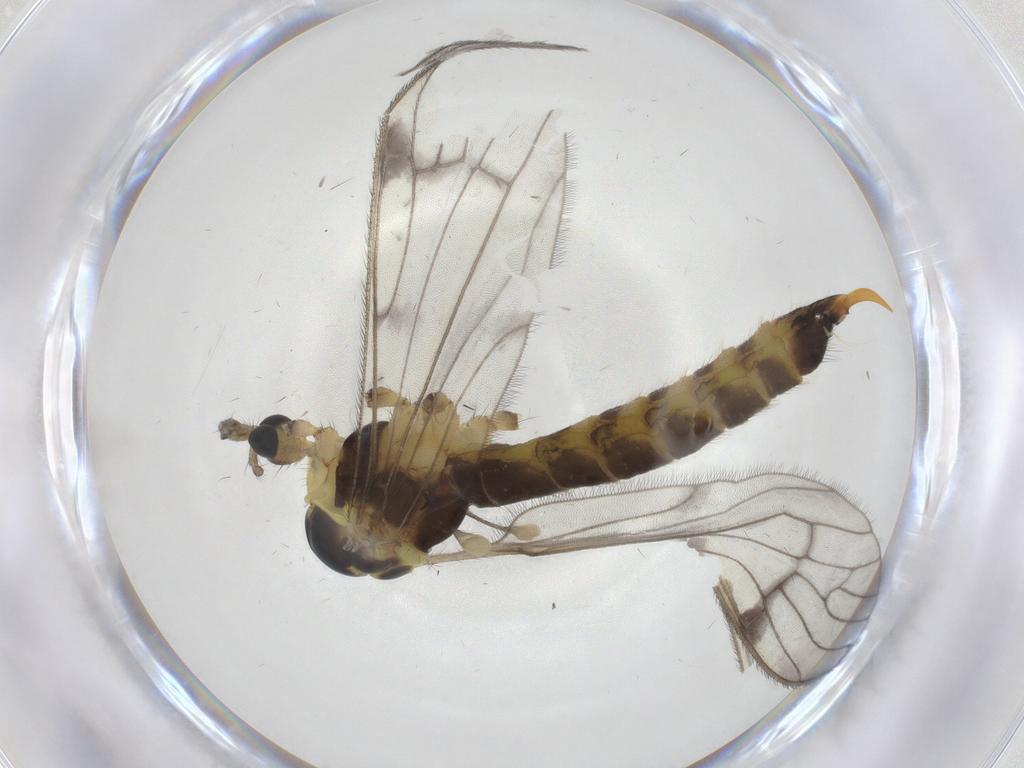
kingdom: Animalia
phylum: Arthropoda
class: Insecta
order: Diptera
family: Limoniidae
